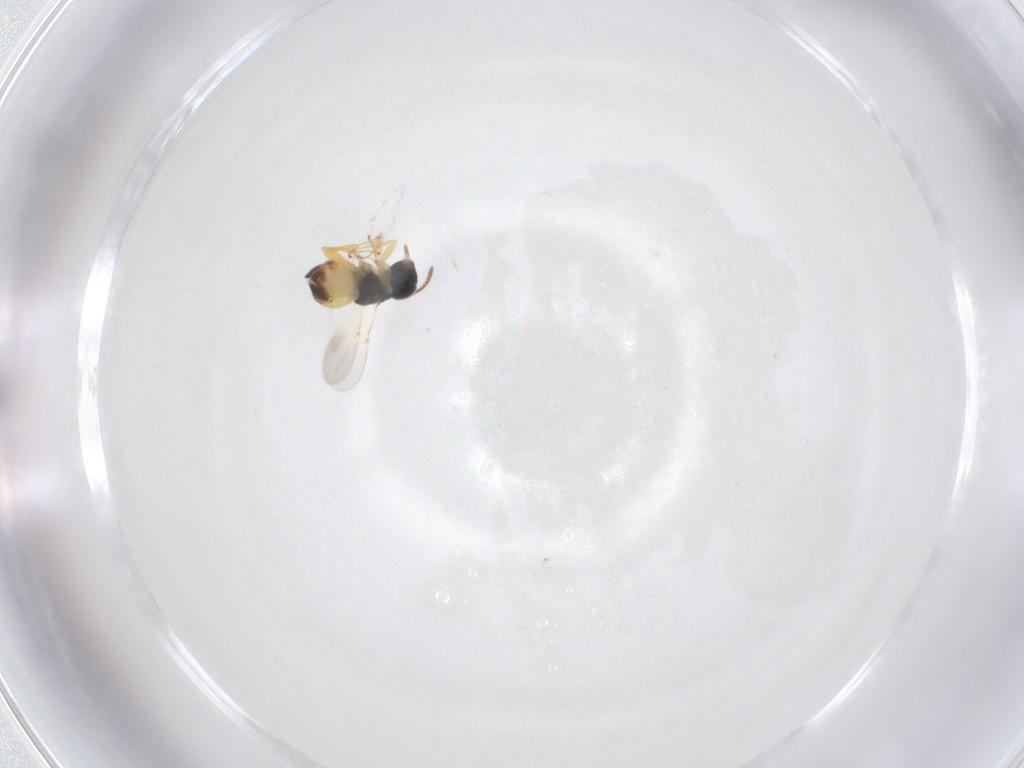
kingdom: Animalia
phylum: Arthropoda
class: Insecta
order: Hymenoptera
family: Encyrtidae
